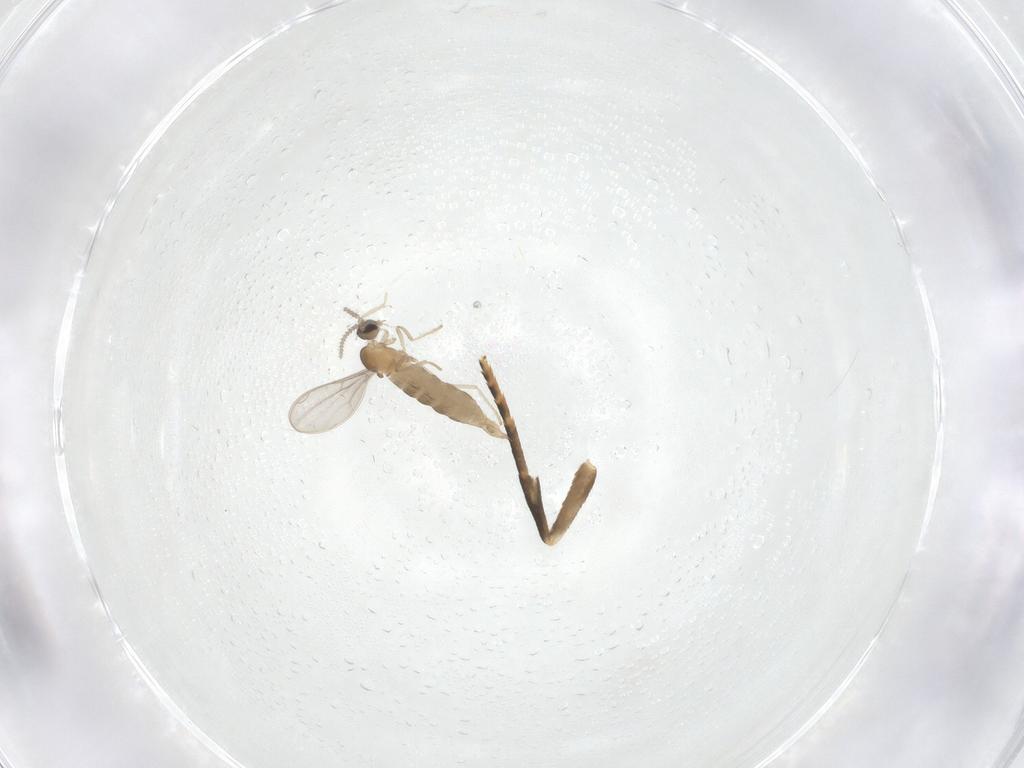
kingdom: Animalia
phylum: Arthropoda
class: Insecta
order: Diptera
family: Cecidomyiidae
